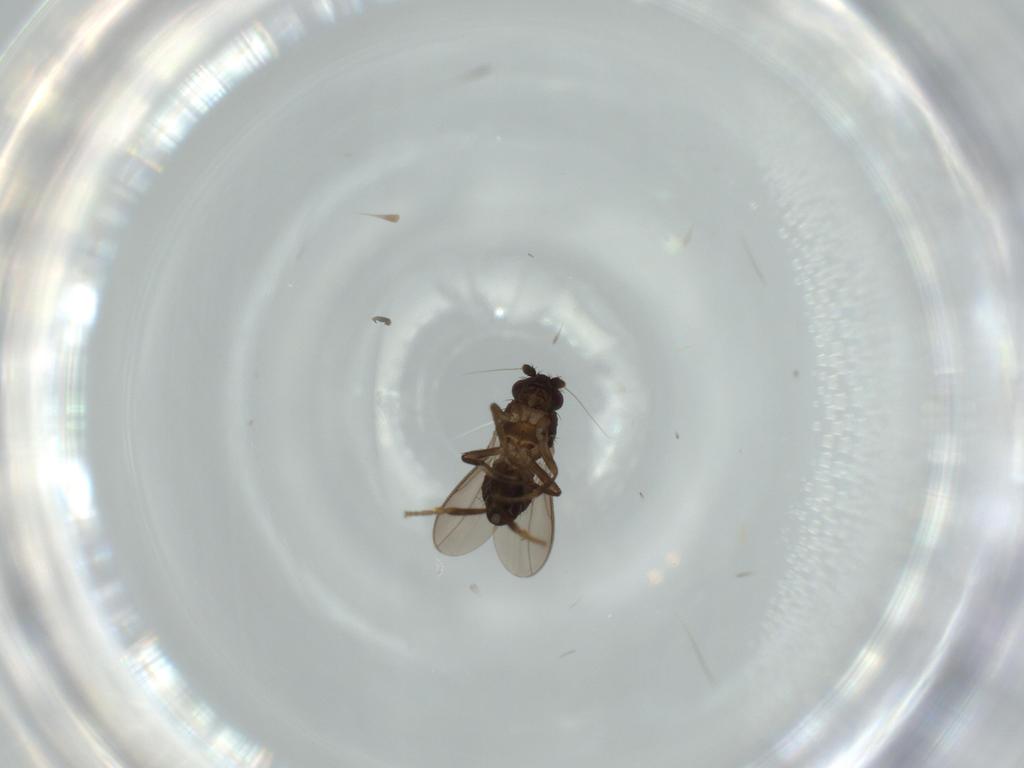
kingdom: Animalia
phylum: Arthropoda
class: Insecta
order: Diptera
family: Sphaeroceridae
